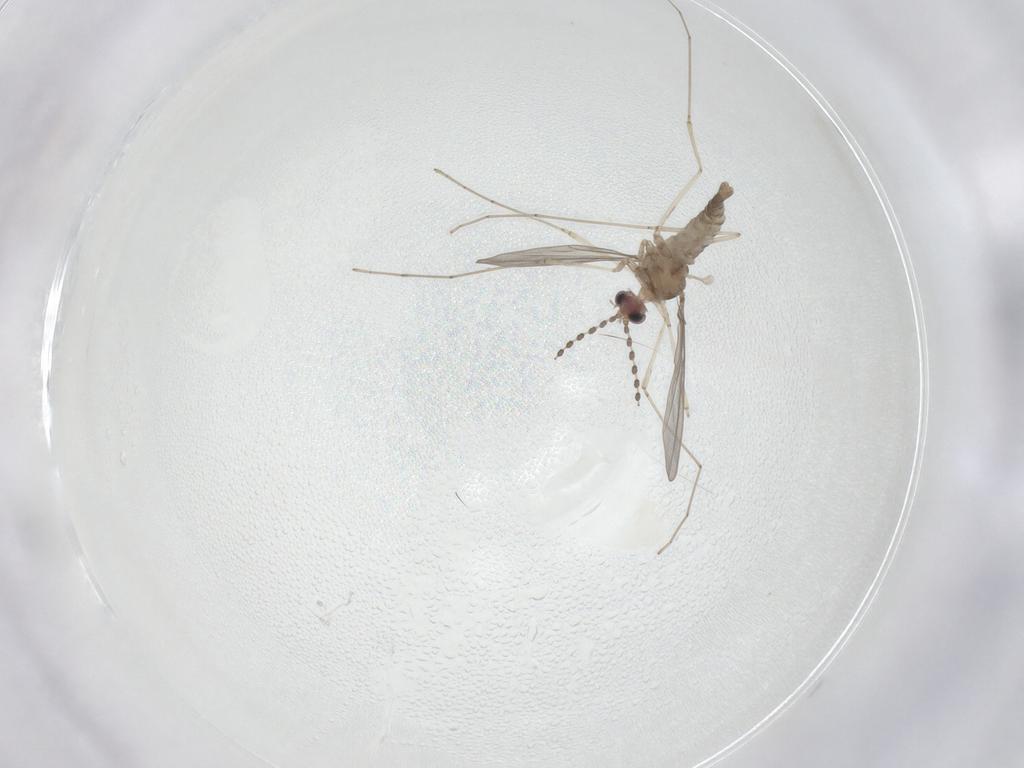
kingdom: Animalia
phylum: Arthropoda
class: Insecta
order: Diptera
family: Cecidomyiidae
